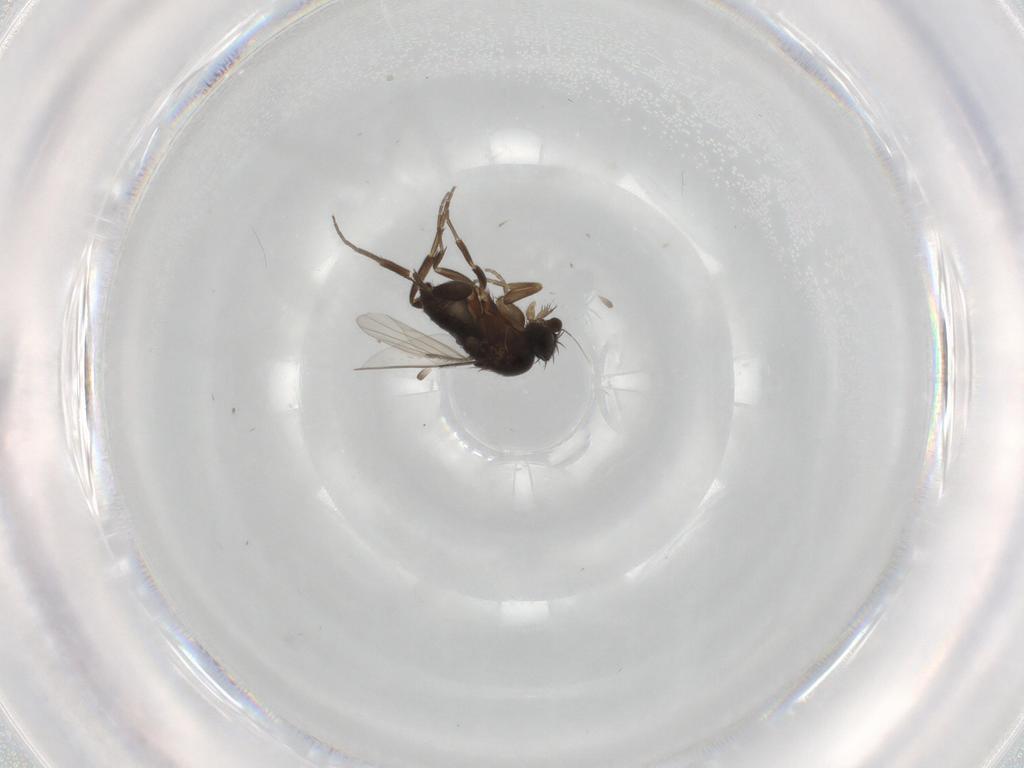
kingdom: Animalia
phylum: Arthropoda
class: Insecta
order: Diptera
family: Phoridae
